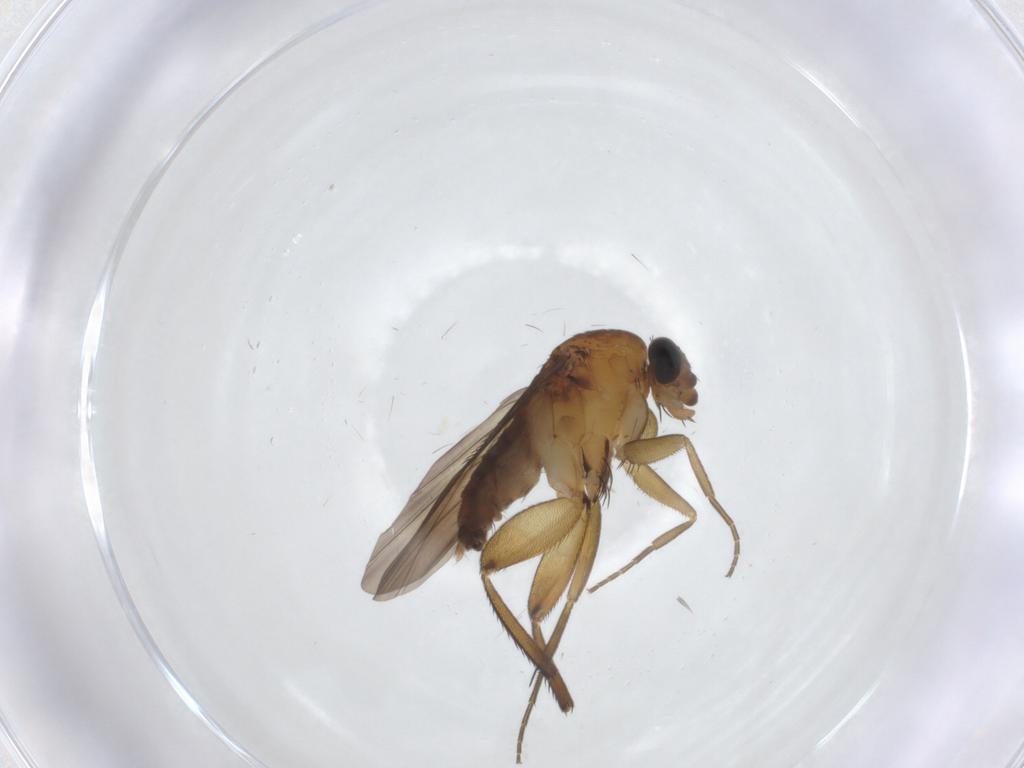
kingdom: Animalia
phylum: Arthropoda
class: Insecta
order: Diptera
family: Phoridae
